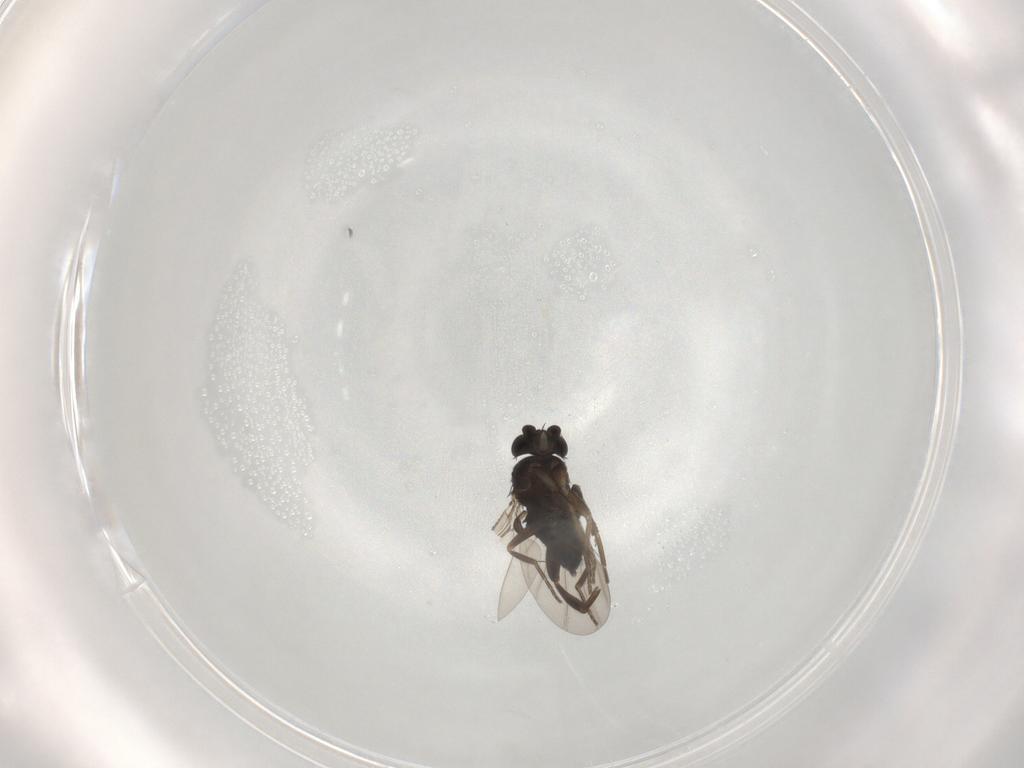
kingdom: Animalia
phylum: Arthropoda
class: Insecta
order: Diptera
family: Phoridae
